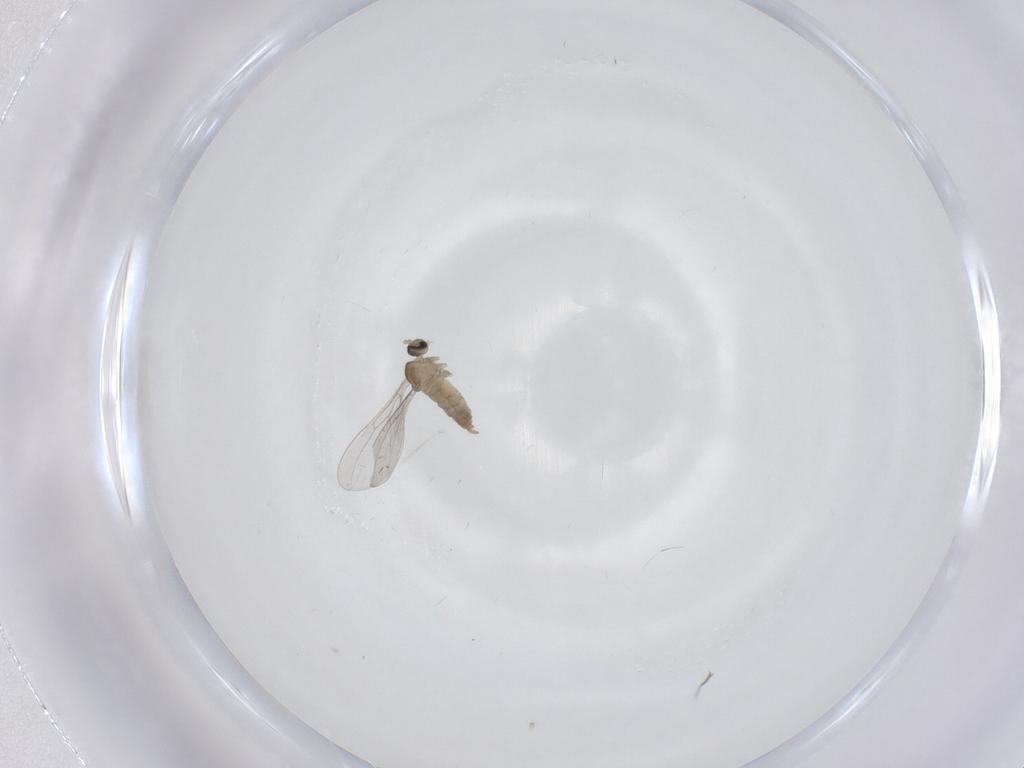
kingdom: Animalia
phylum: Arthropoda
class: Insecta
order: Diptera
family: Cecidomyiidae
